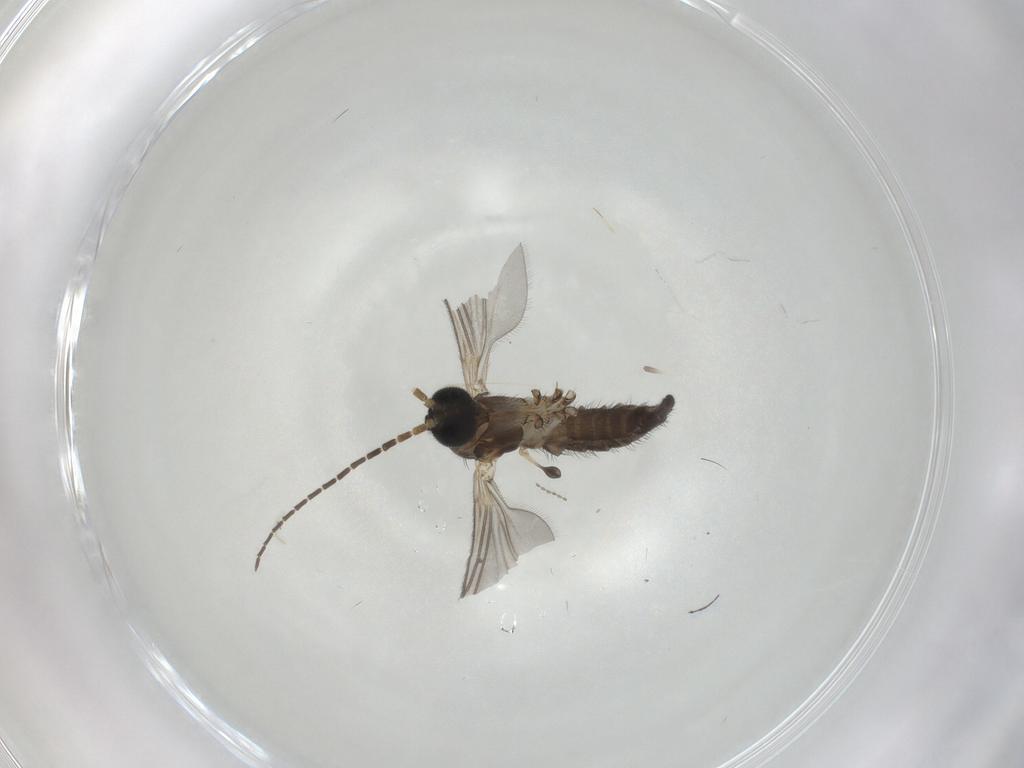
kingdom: Animalia
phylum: Arthropoda
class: Insecta
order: Diptera
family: Sciaridae
